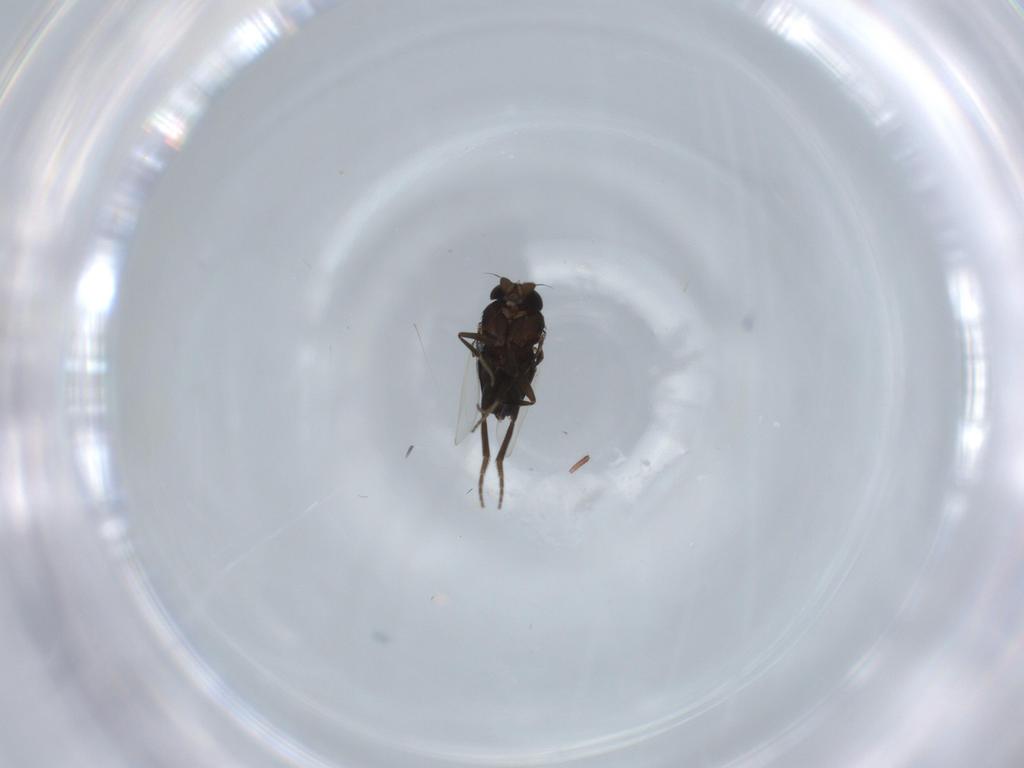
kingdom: Animalia
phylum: Arthropoda
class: Insecta
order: Diptera
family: Phoridae
